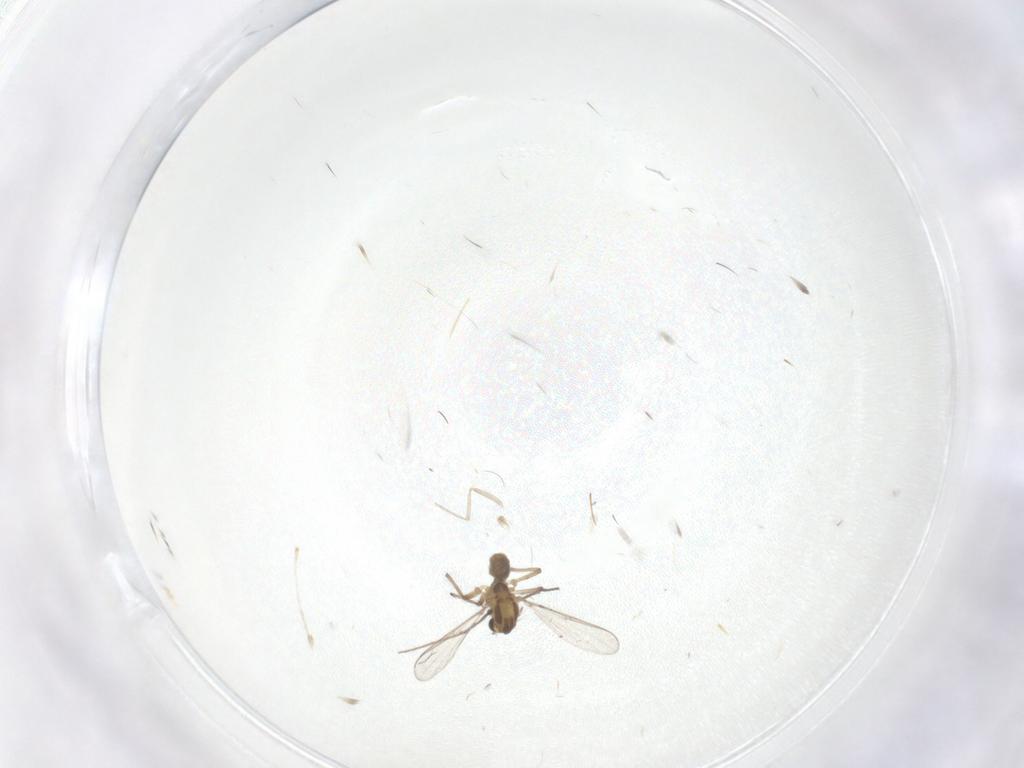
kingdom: Animalia
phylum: Arthropoda
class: Insecta
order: Diptera
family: Chironomidae
